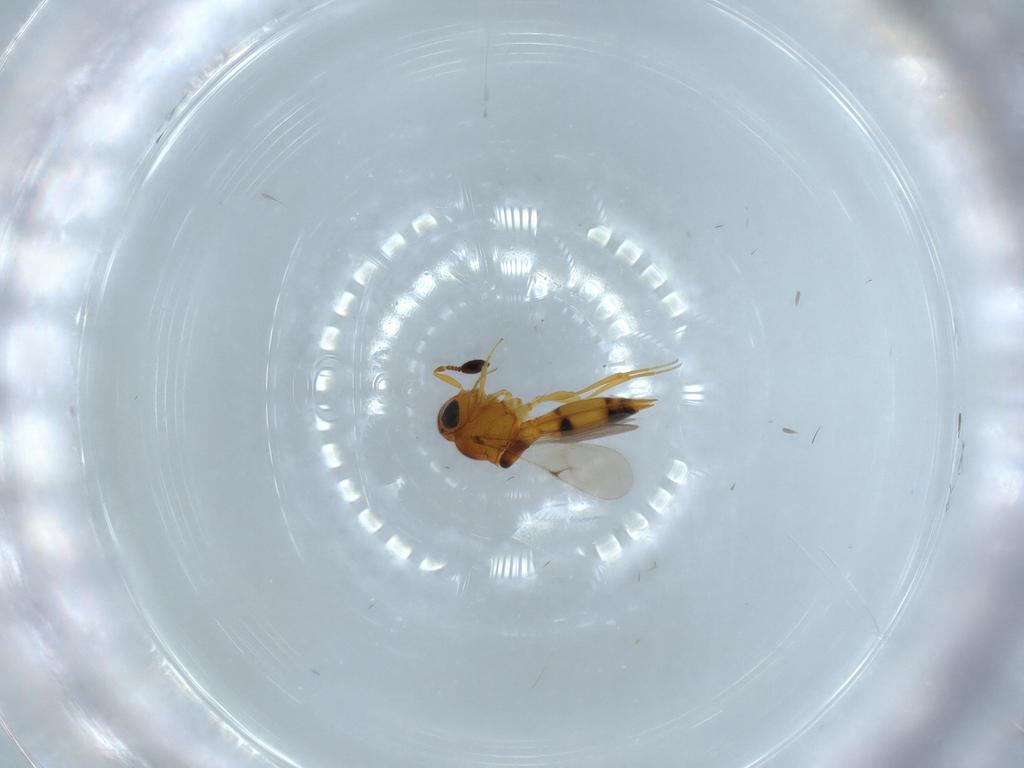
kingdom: Animalia
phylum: Arthropoda
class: Insecta
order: Hymenoptera
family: Scelionidae
